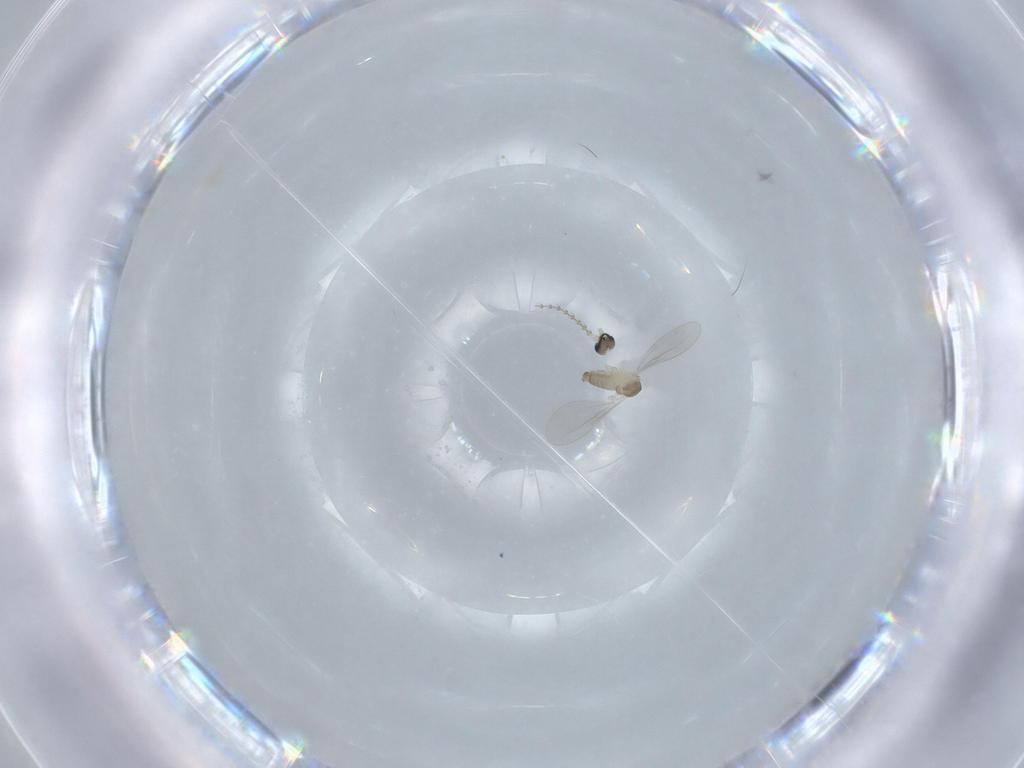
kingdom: Animalia
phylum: Arthropoda
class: Insecta
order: Diptera
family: Cecidomyiidae
